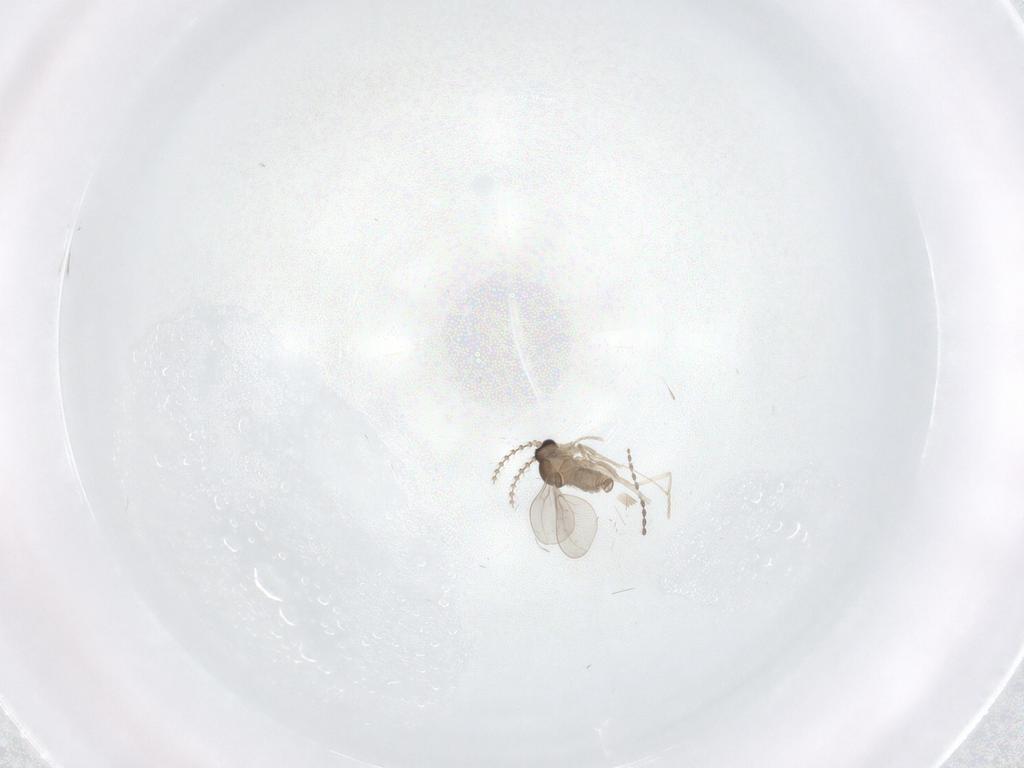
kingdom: Animalia
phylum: Arthropoda
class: Insecta
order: Diptera
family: Cecidomyiidae
